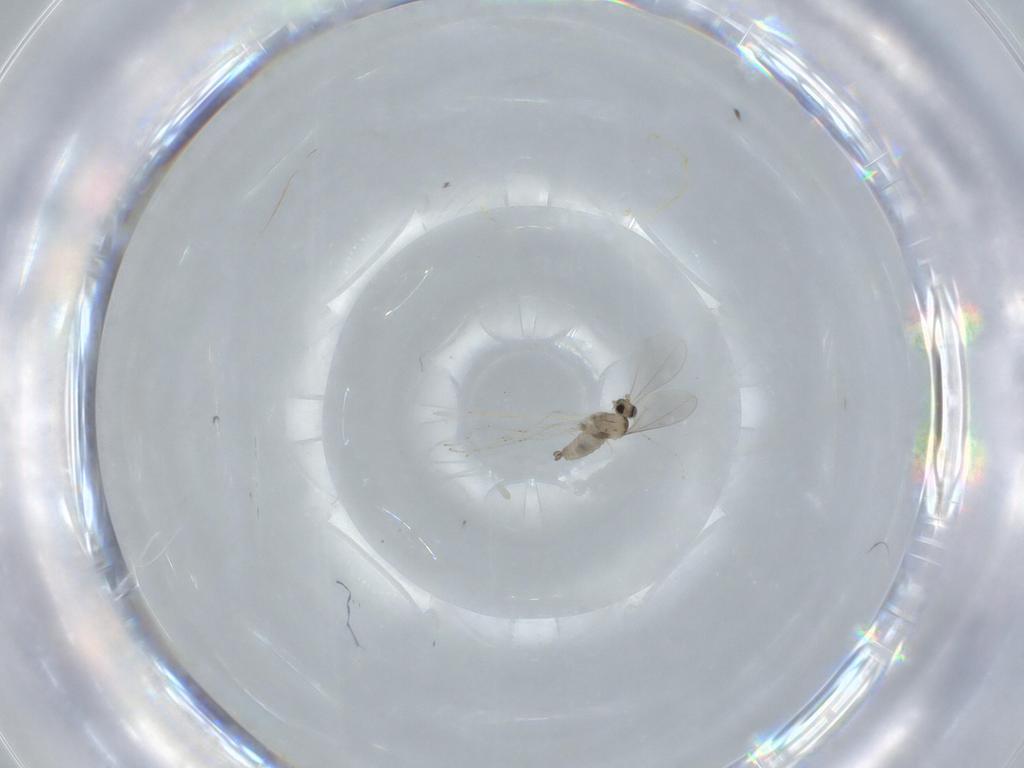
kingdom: Animalia
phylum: Arthropoda
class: Insecta
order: Diptera
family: Cecidomyiidae
